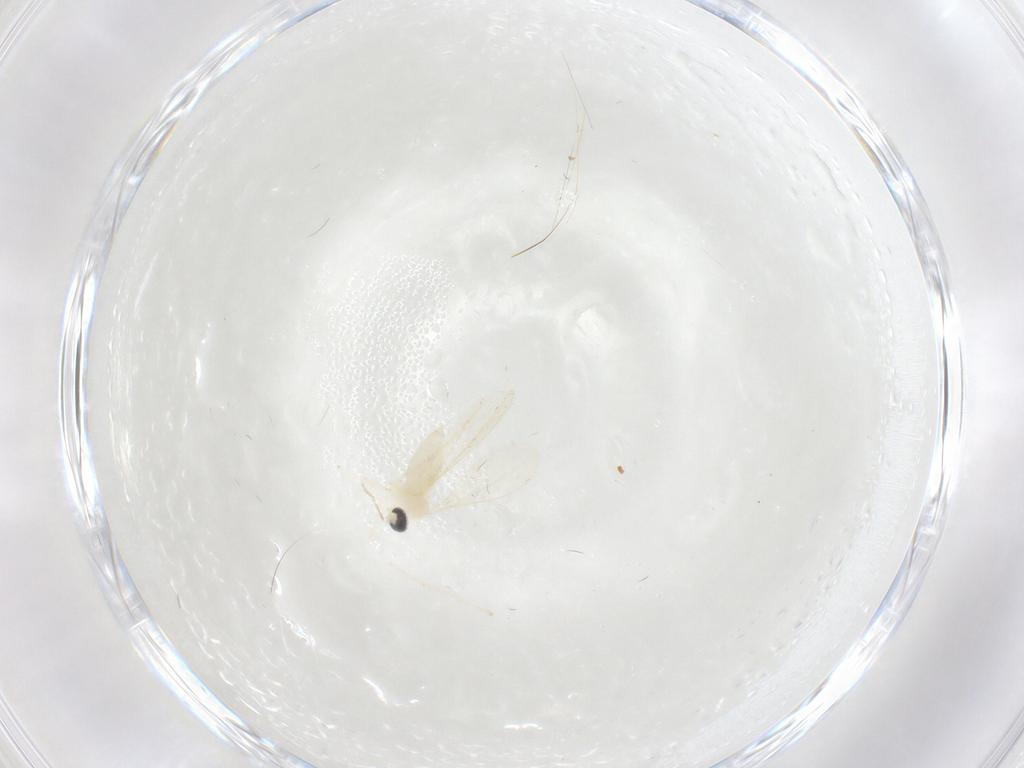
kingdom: Animalia
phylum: Arthropoda
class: Insecta
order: Diptera
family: Cecidomyiidae
